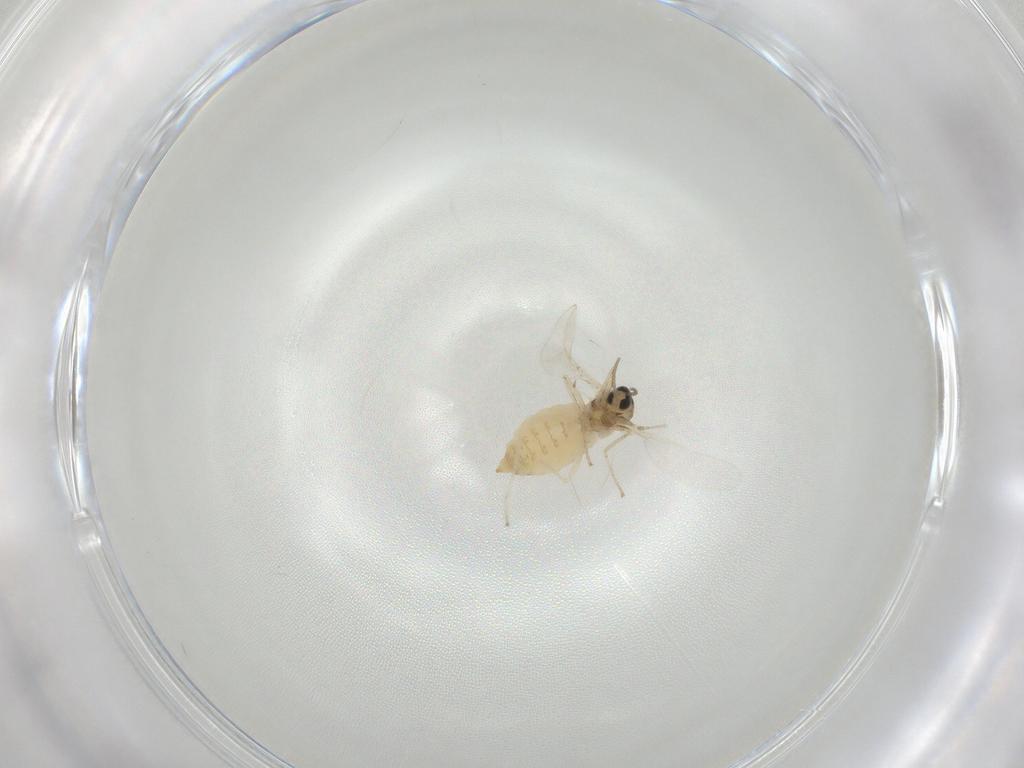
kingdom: Animalia
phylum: Arthropoda
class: Insecta
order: Diptera
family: Cecidomyiidae
